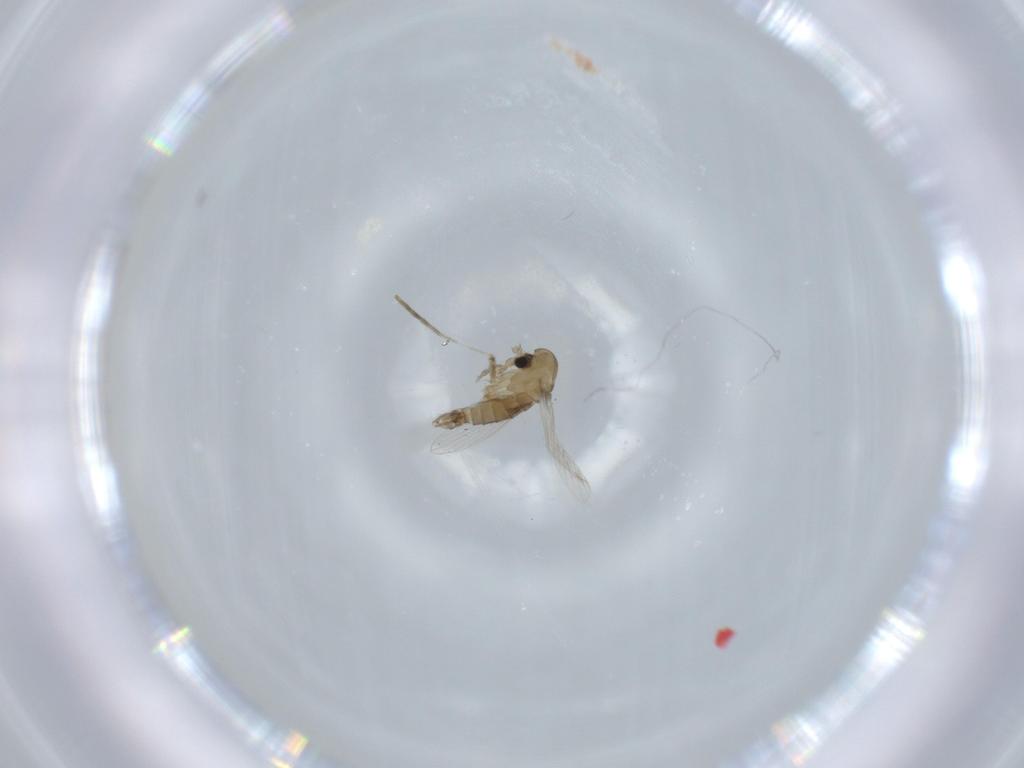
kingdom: Animalia
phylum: Arthropoda
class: Insecta
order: Diptera
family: Psychodidae
